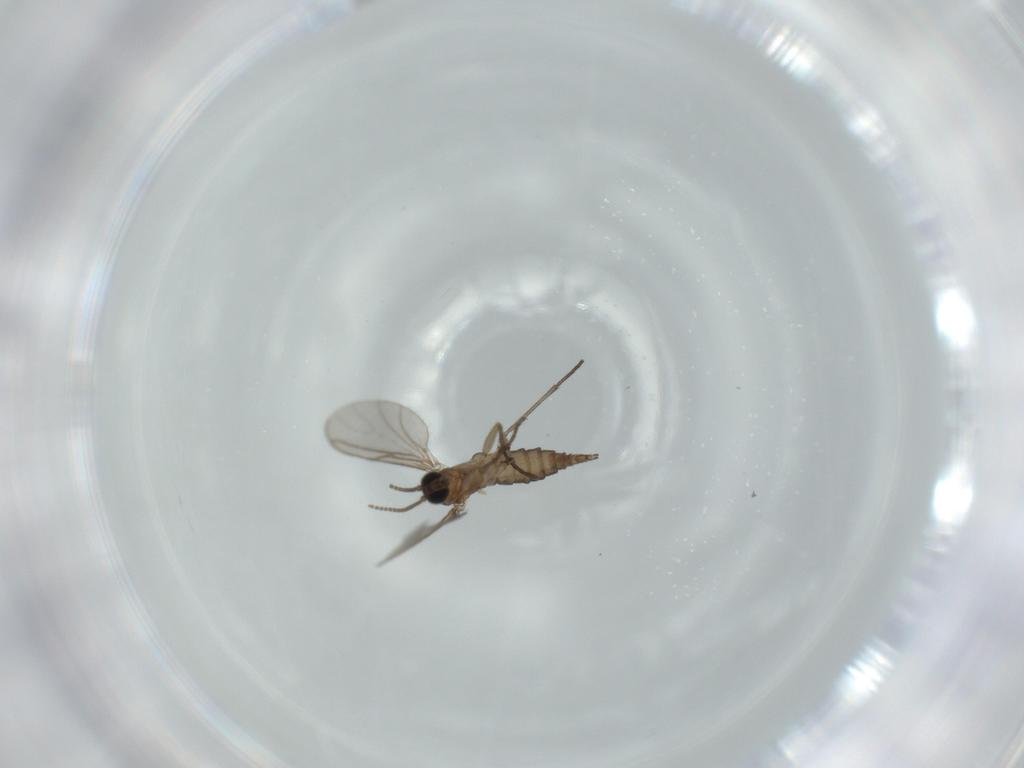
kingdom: Animalia
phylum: Arthropoda
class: Insecta
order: Diptera
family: Sciaridae
